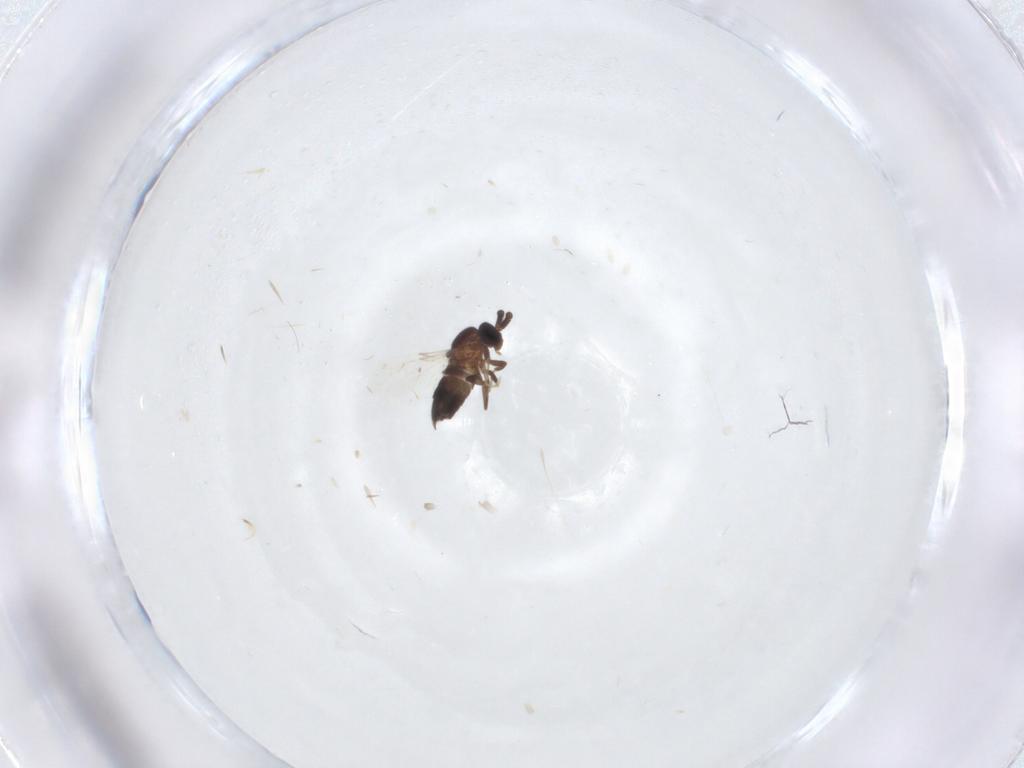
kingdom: Animalia
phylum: Arthropoda
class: Insecta
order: Diptera
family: Scatopsidae
